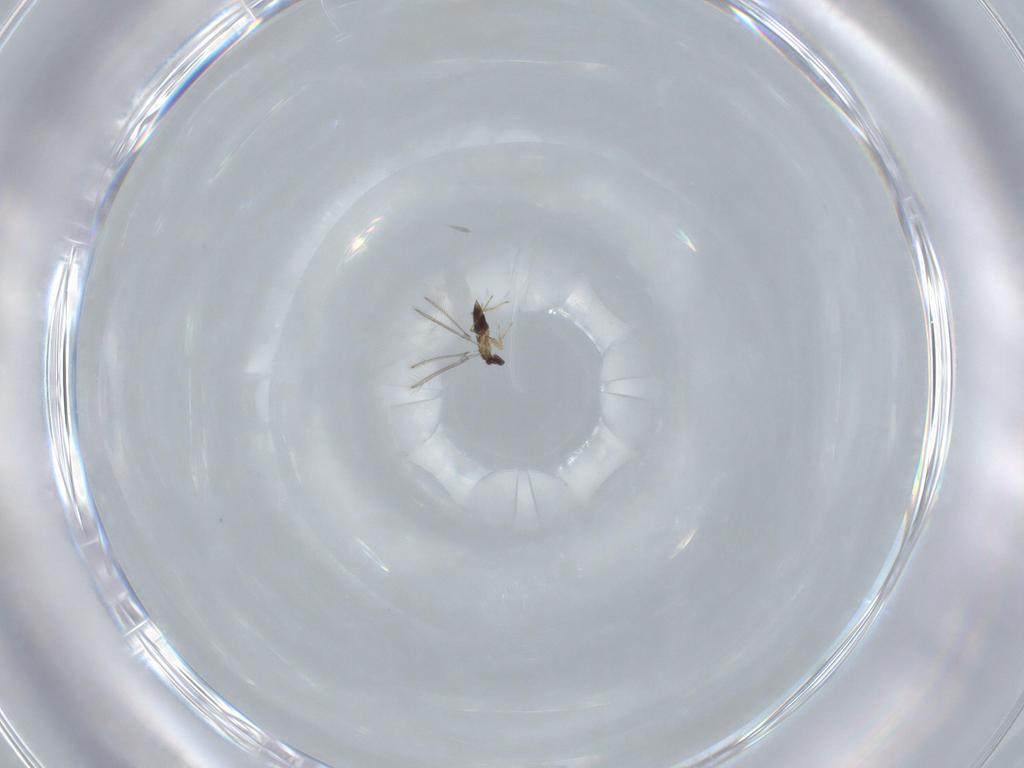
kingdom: Animalia
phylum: Arthropoda
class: Insecta
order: Hymenoptera
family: Mymaridae
